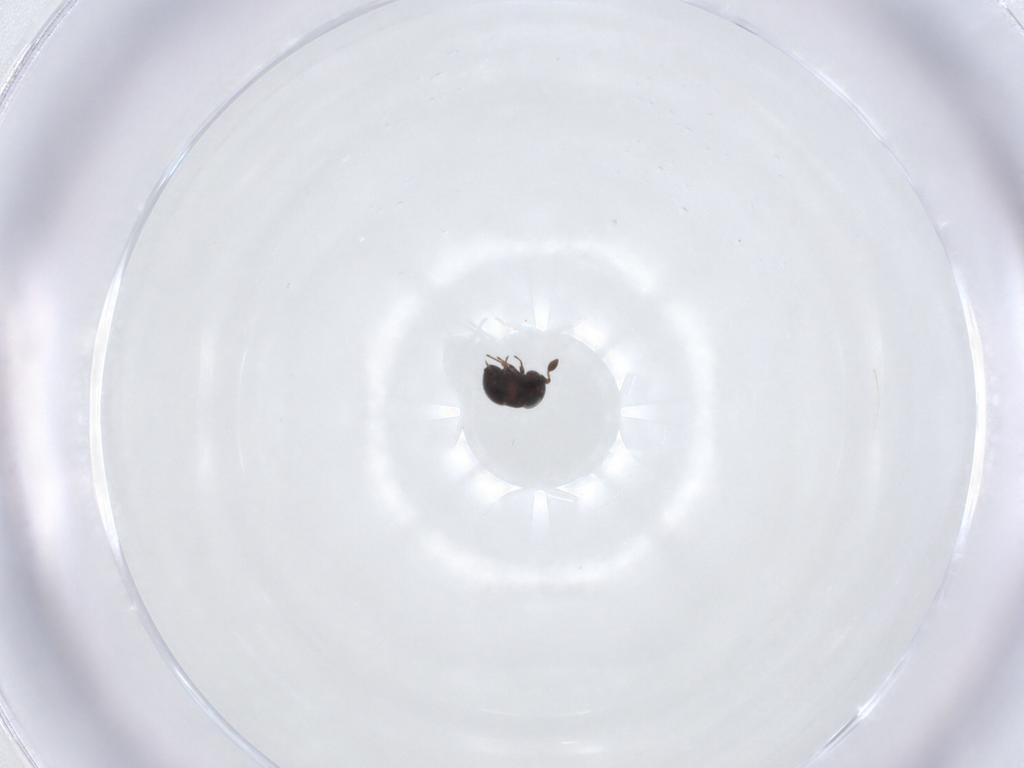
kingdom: Animalia
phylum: Arthropoda
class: Insecta
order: Hymenoptera
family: Scelionidae
